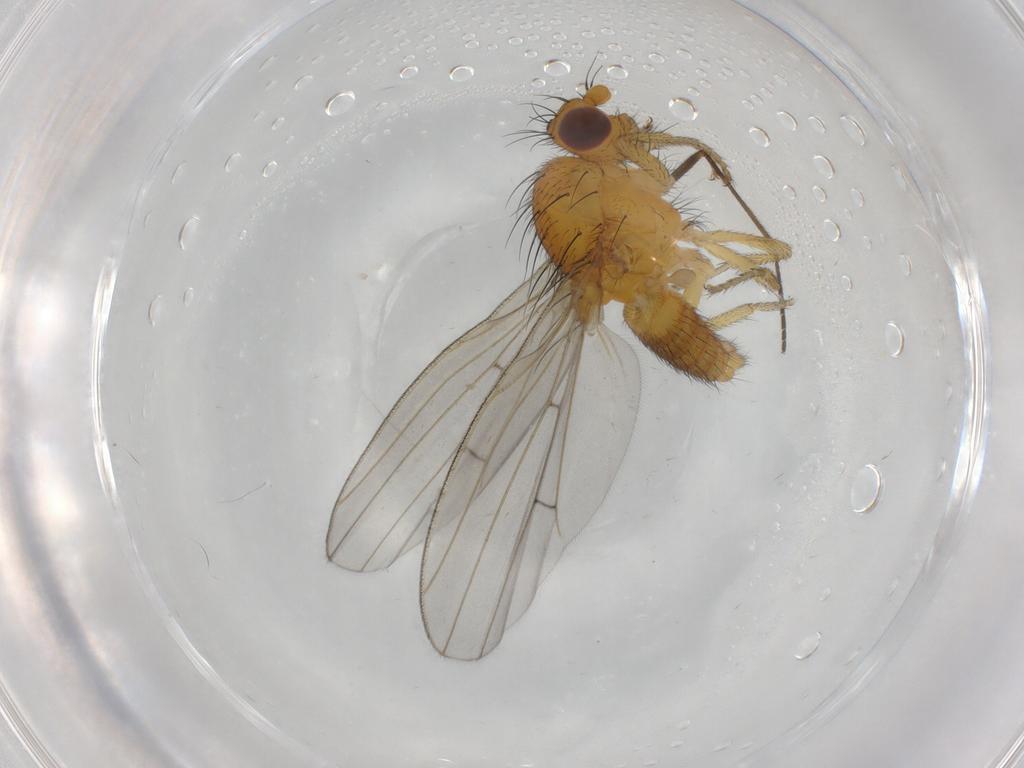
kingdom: Animalia
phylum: Arthropoda
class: Insecta
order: Diptera
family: Lauxaniidae
